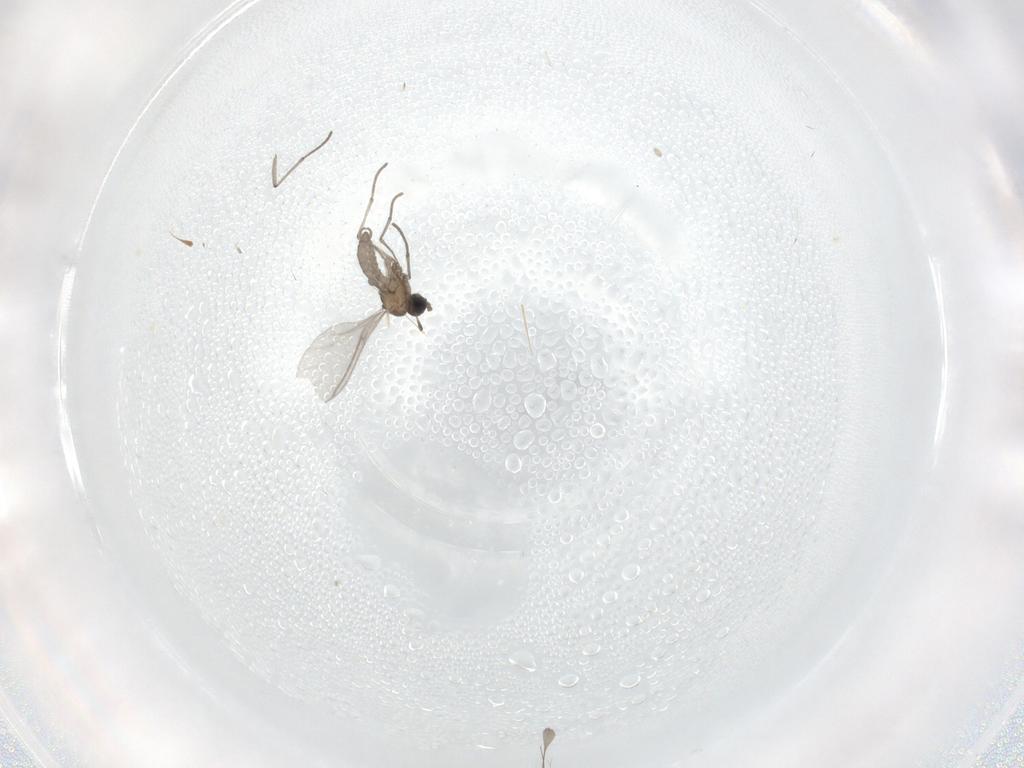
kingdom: Animalia
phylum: Arthropoda
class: Insecta
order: Diptera
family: Sciaridae
